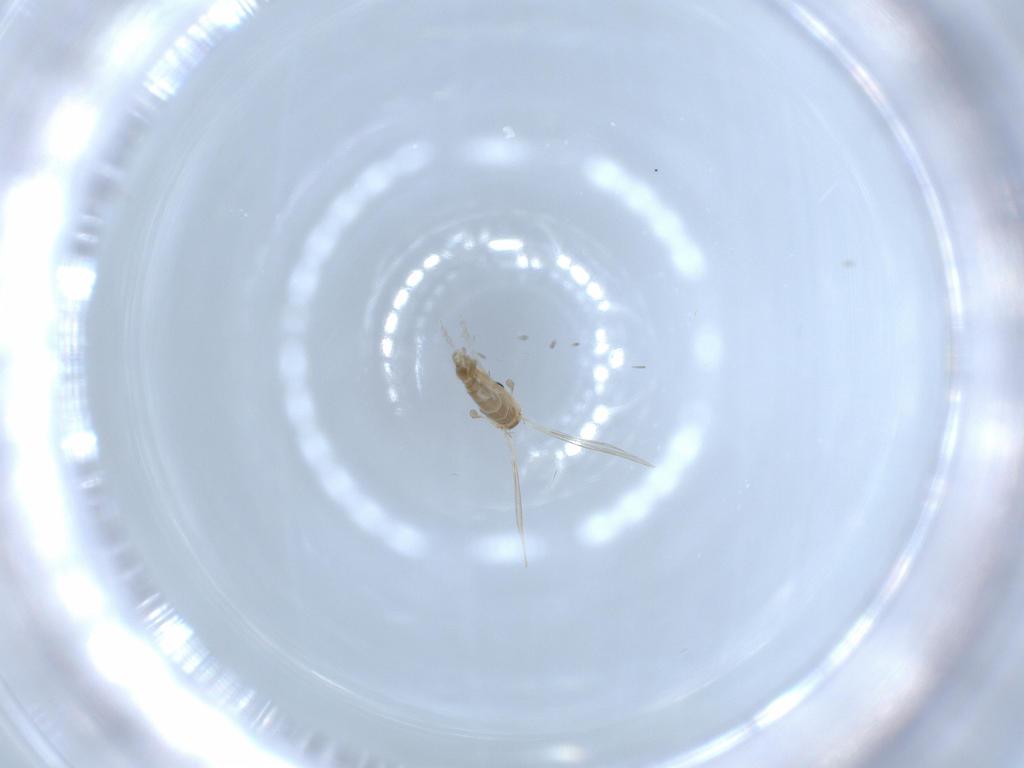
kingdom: Animalia
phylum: Arthropoda
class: Insecta
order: Diptera
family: Psychodidae
